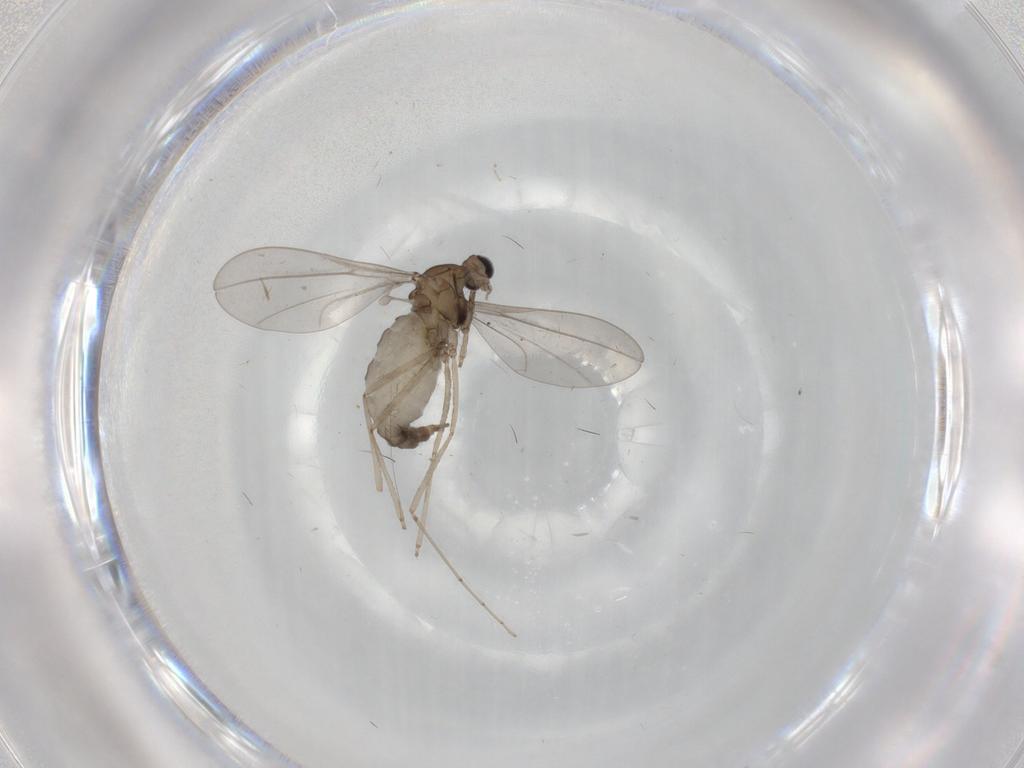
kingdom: Animalia
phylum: Arthropoda
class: Insecta
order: Diptera
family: Cecidomyiidae
